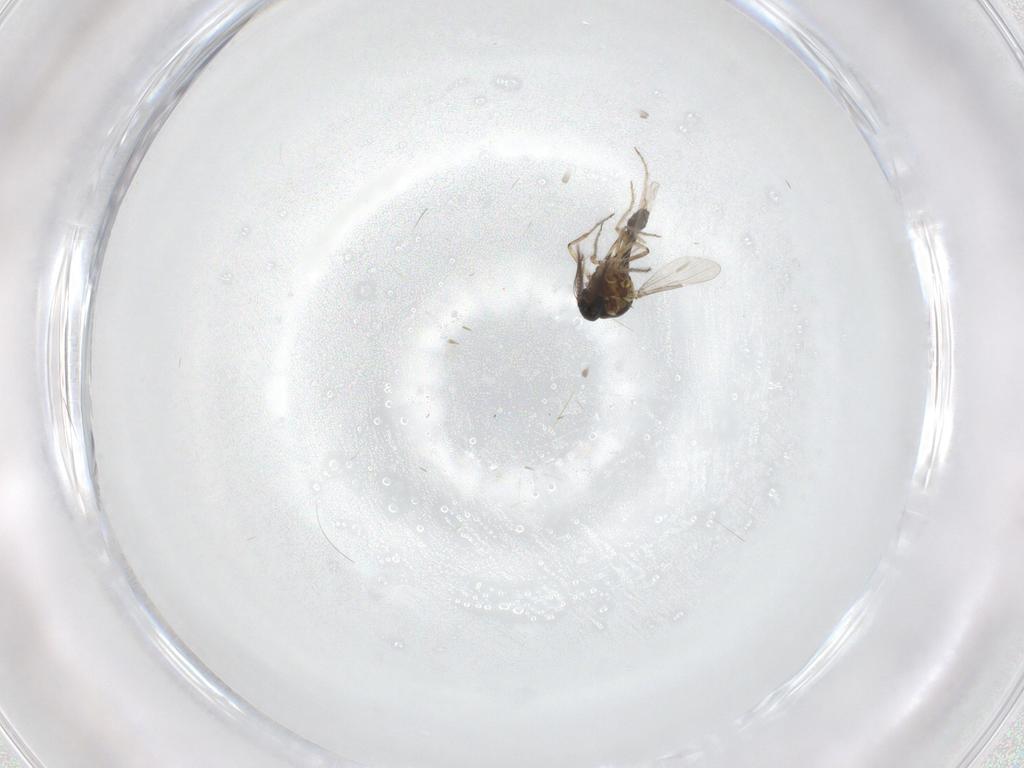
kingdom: Animalia
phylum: Arthropoda
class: Insecta
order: Diptera
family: Ceratopogonidae
